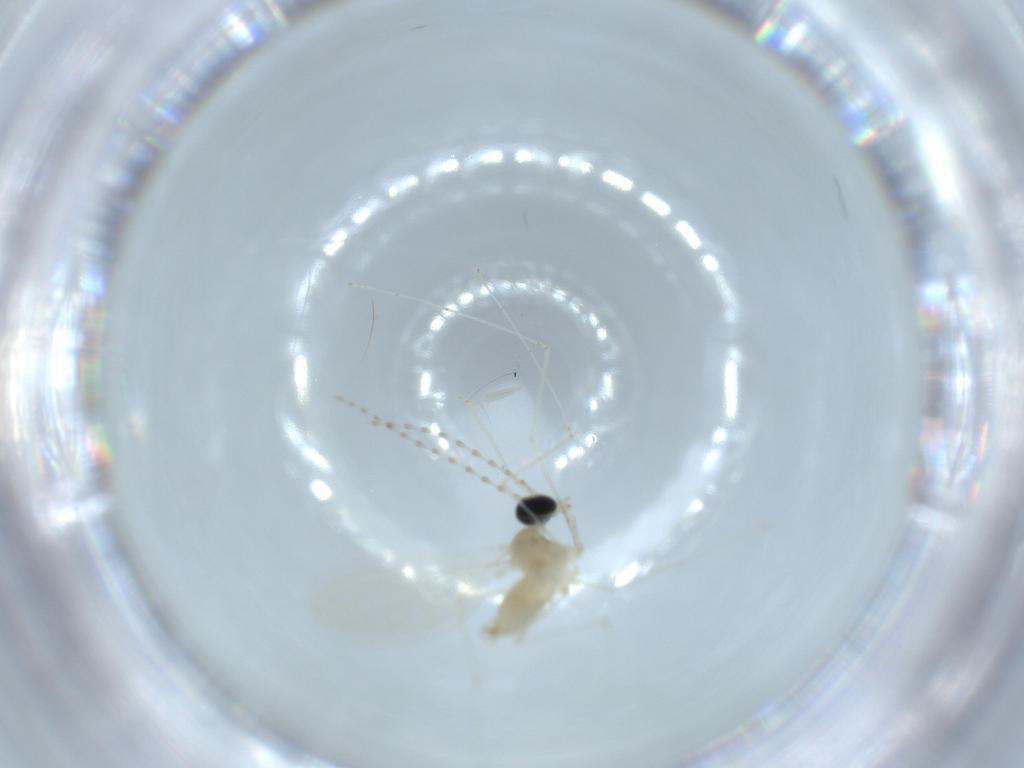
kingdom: Animalia
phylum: Arthropoda
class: Insecta
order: Diptera
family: Cecidomyiidae
